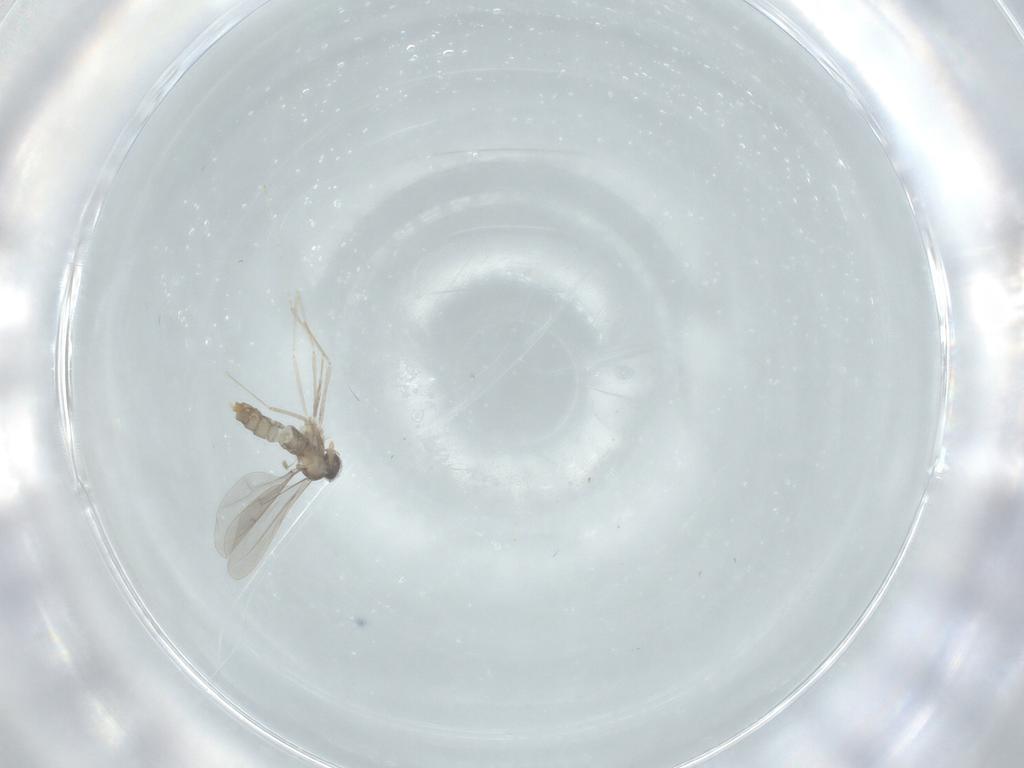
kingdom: Animalia
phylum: Arthropoda
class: Insecta
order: Diptera
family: Cecidomyiidae
